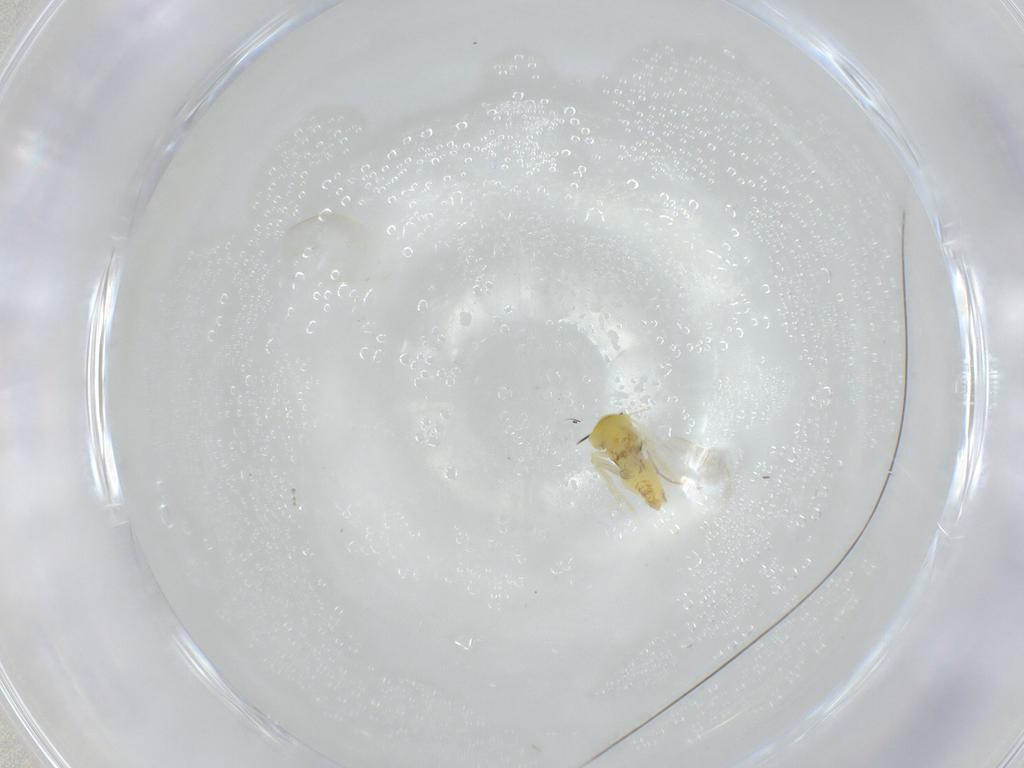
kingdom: Animalia
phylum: Arthropoda
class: Insecta
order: Hemiptera
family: Aleyrodidae
